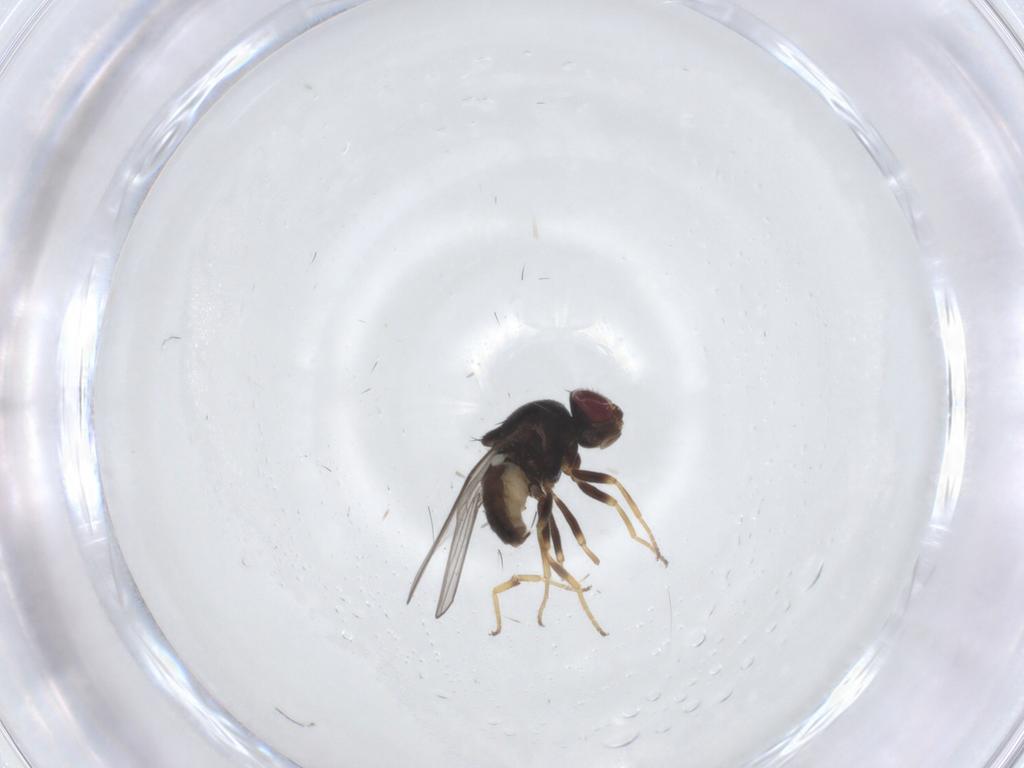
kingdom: Animalia
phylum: Arthropoda
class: Insecta
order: Diptera
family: Chloropidae
